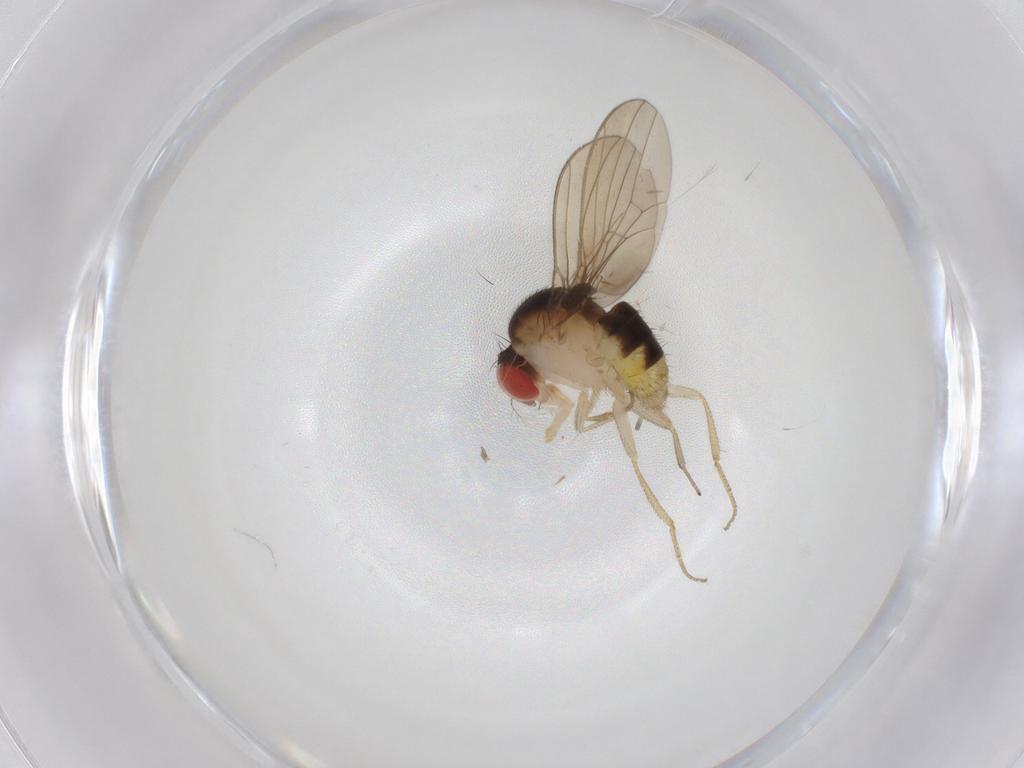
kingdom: Animalia
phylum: Arthropoda
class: Insecta
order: Diptera
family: Drosophilidae
